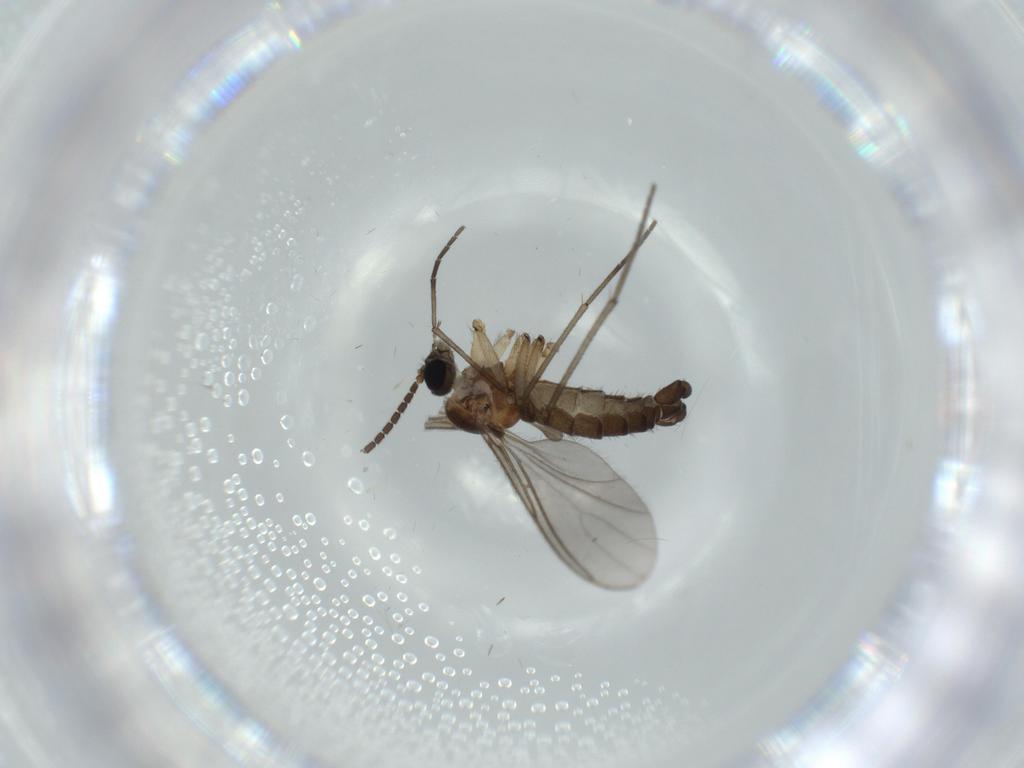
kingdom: Animalia
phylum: Arthropoda
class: Insecta
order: Diptera
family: Sciaridae
